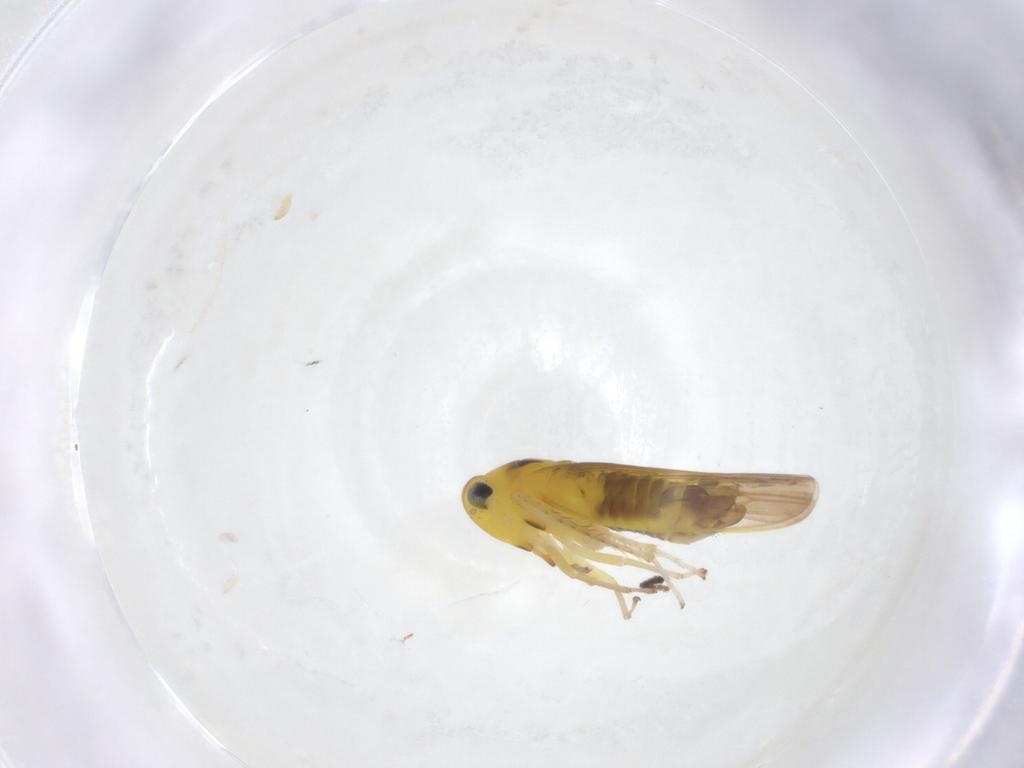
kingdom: Animalia
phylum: Arthropoda
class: Insecta
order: Hemiptera
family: Cicadellidae
